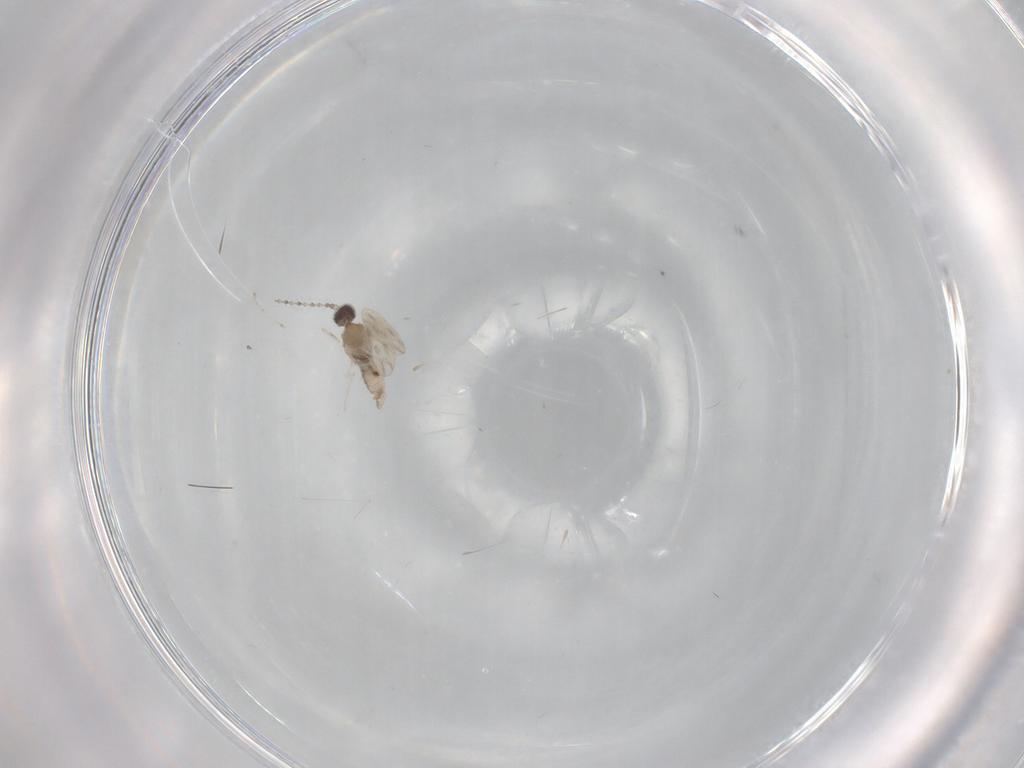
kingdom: Animalia
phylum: Arthropoda
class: Insecta
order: Diptera
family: Cecidomyiidae
